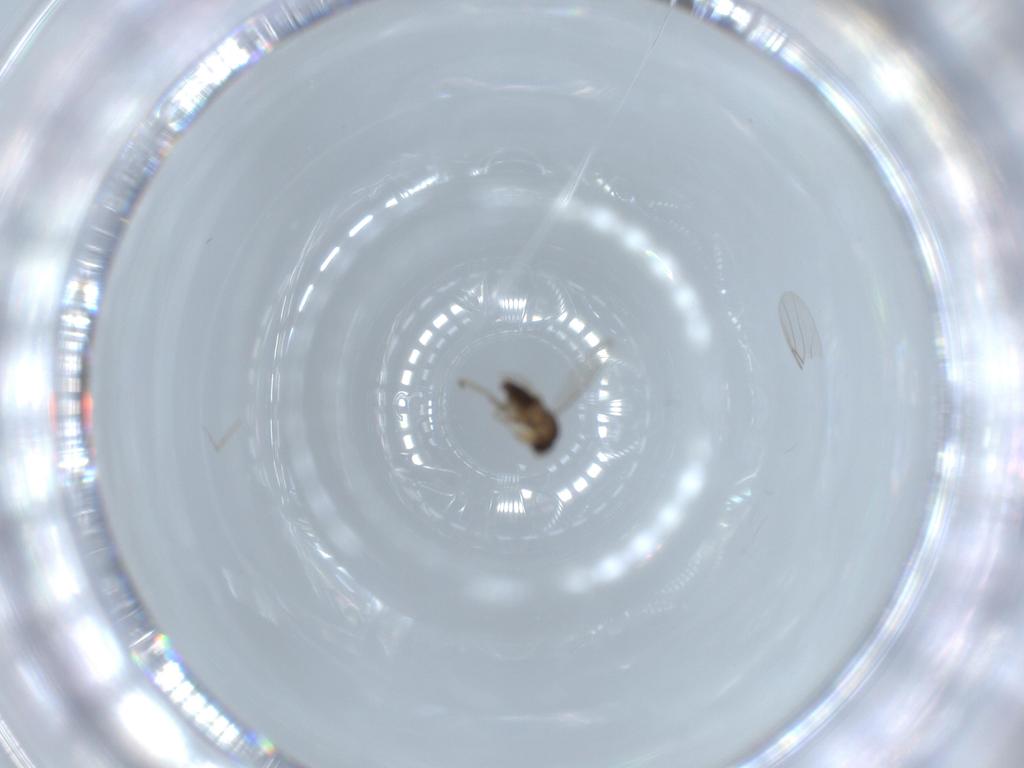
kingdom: Animalia
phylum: Arthropoda
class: Insecta
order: Diptera
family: Phoridae
